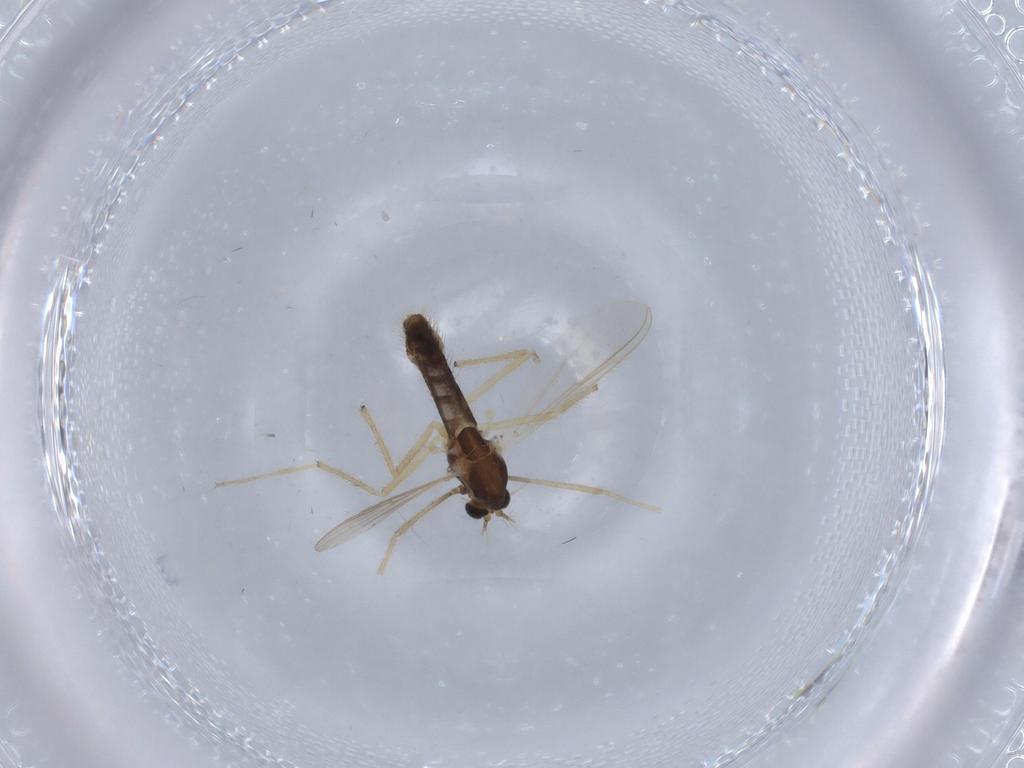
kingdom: Animalia
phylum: Arthropoda
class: Insecta
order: Diptera
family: Chironomidae
